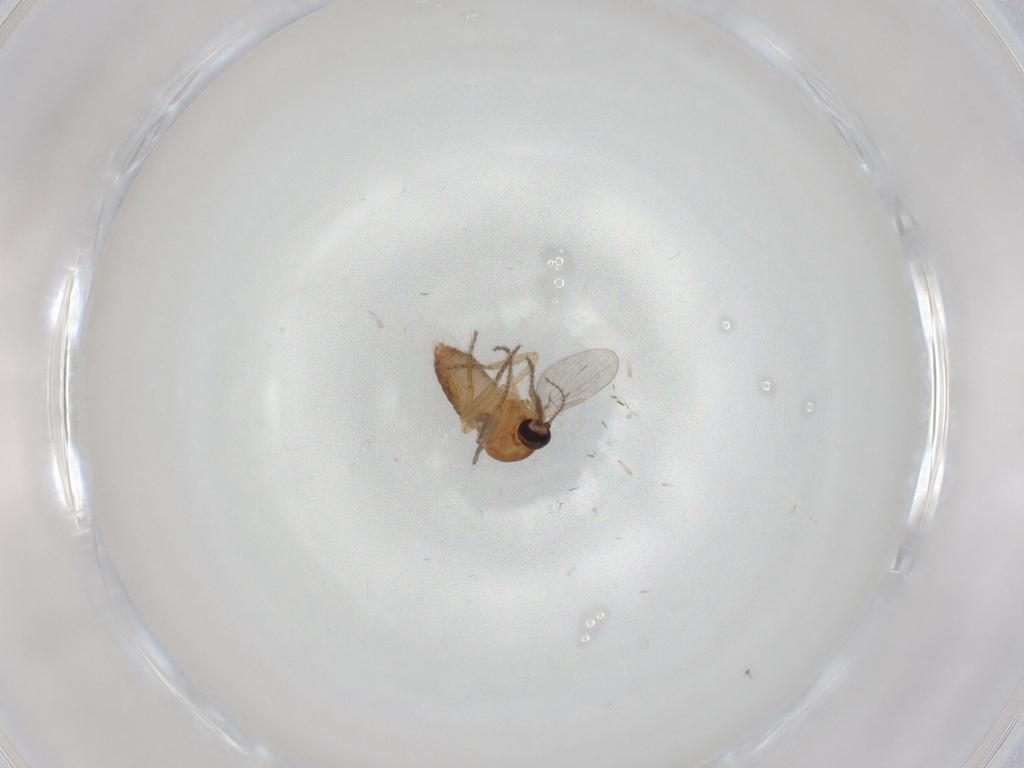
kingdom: Animalia
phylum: Arthropoda
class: Insecta
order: Diptera
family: Ceratopogonidae
